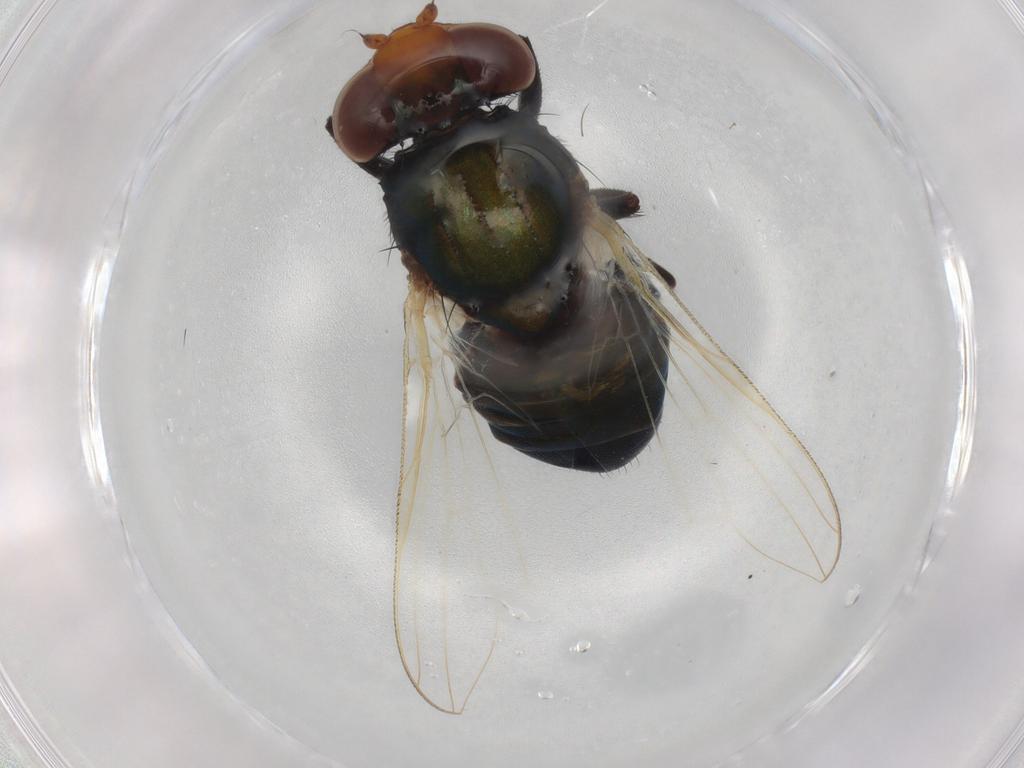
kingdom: Animalia
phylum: Arthropoda
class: Insecta
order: Diptera
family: Ulidiidae
